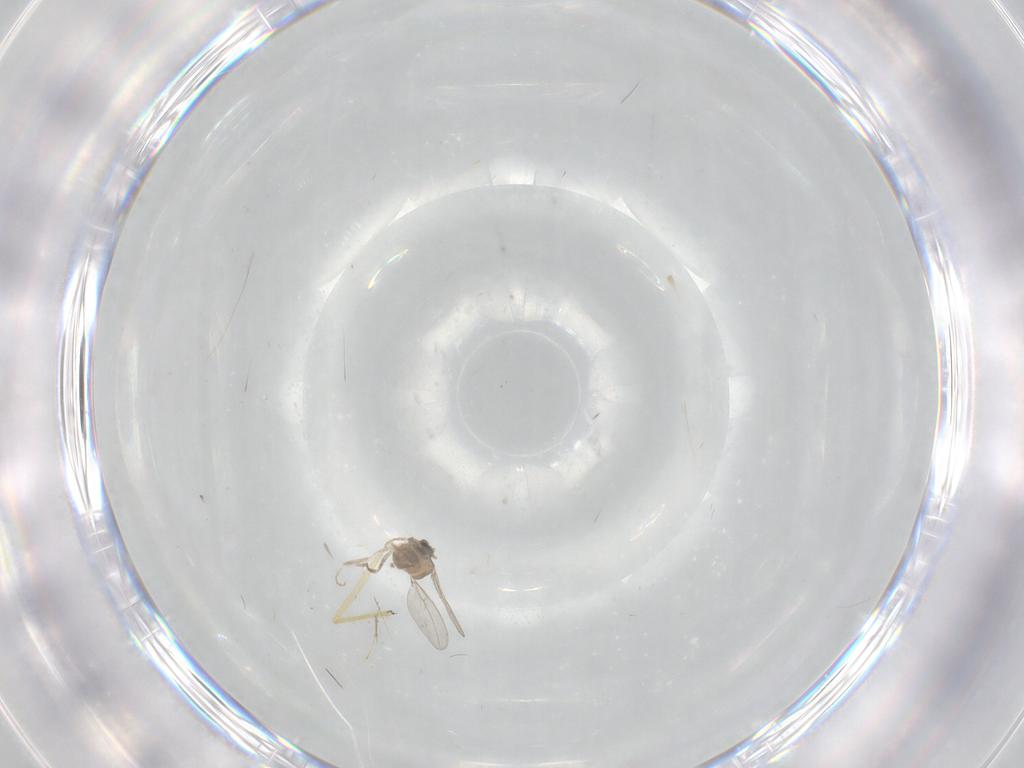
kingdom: Animalia
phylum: Arthropoda
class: Insecta
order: Diptera
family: Cecidomyiidae
